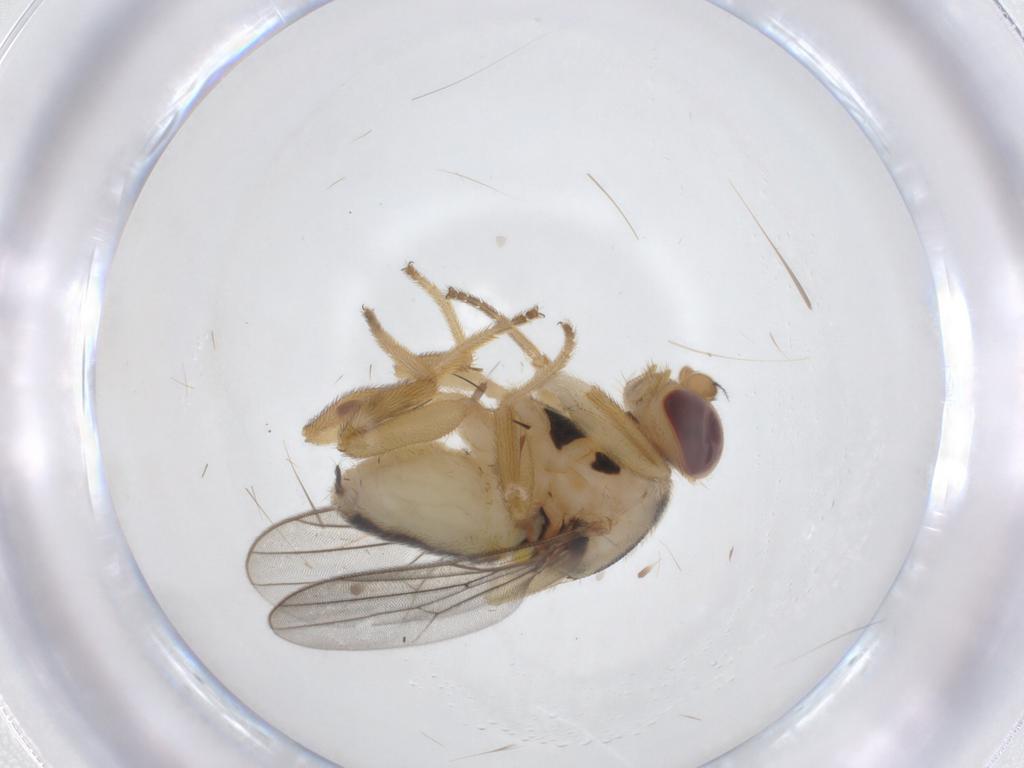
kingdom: Animalia
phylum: Arthropoda
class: Insecta
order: Diptera
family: Chloropidae
